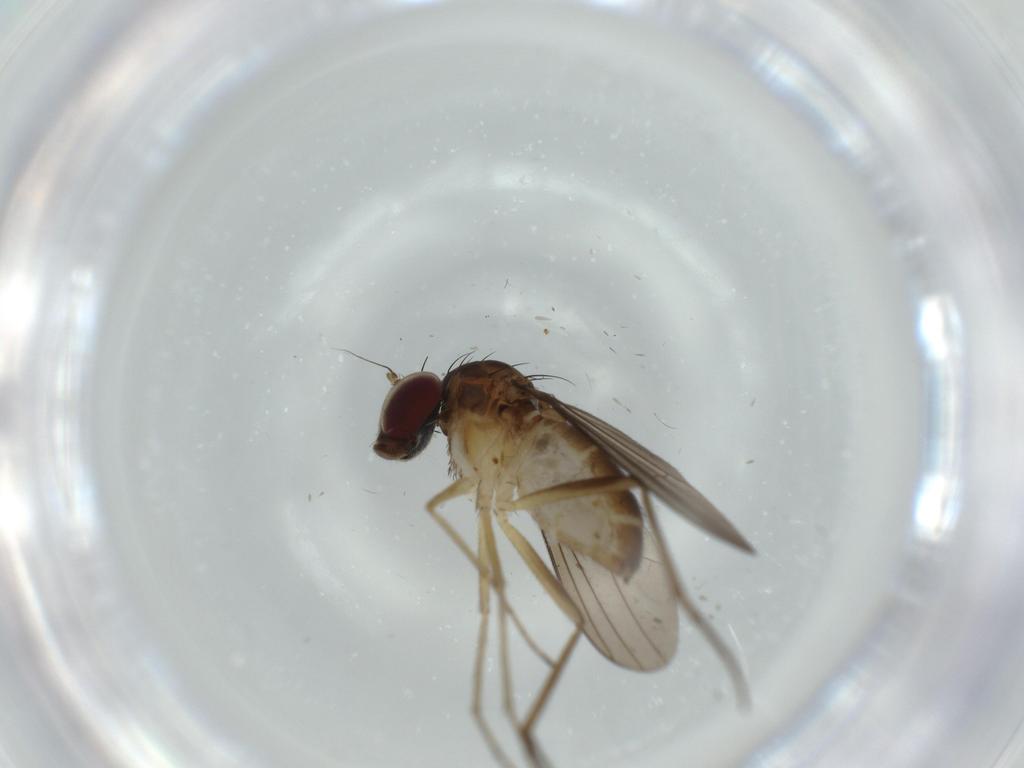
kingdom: Animalia
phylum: Arthropoda
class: Insecta
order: Diptera
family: Dolichopodidae
